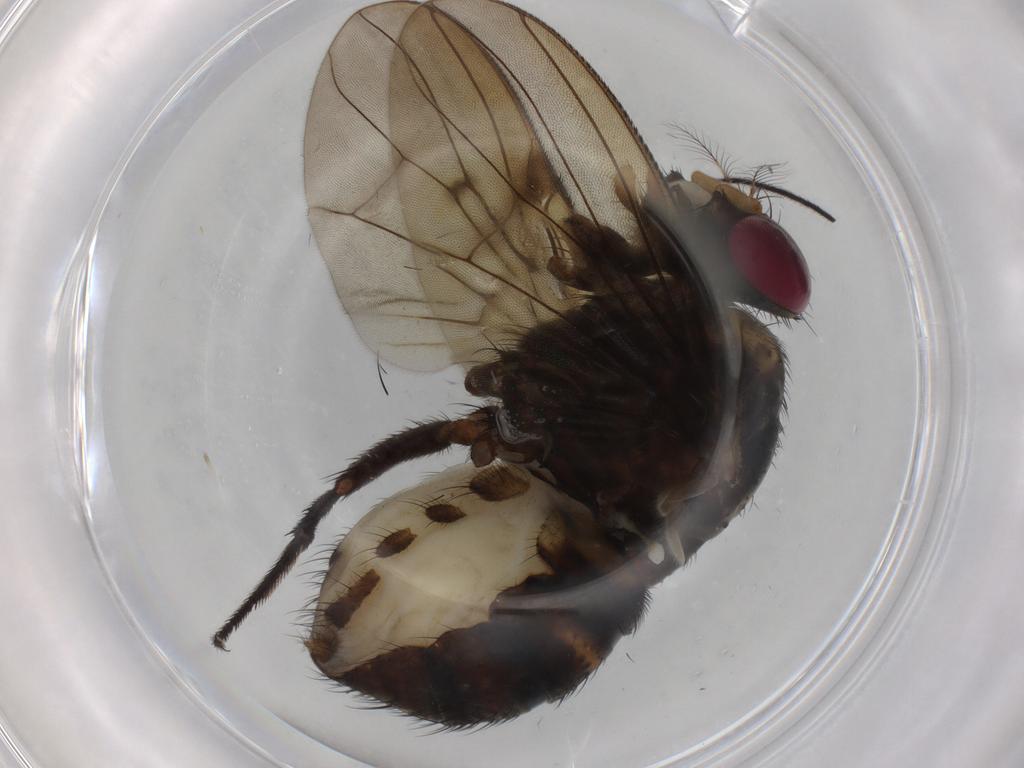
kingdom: Animalia
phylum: Arthropoda
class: Insecta
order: Diptera
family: Muscidae
